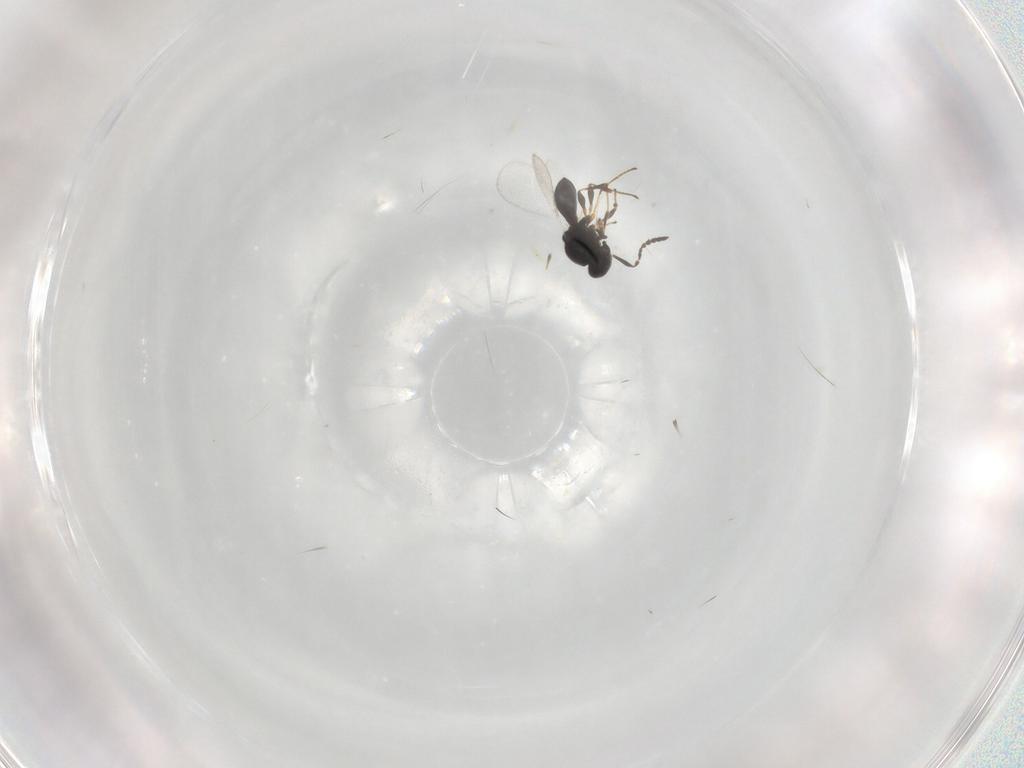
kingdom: Animalia
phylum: Arthropoda
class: Insecta
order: Hymenoptera
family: Platygastridae
